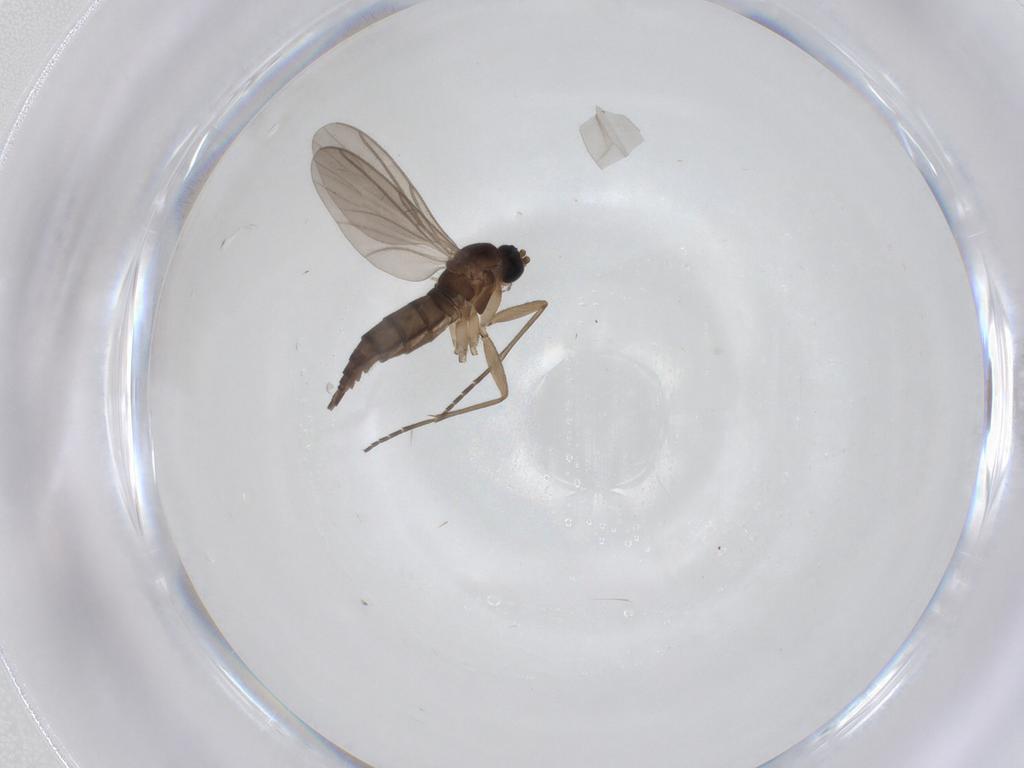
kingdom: Animalia
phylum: Arthropoda
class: Insecta
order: Diptera
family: Sciaridae
